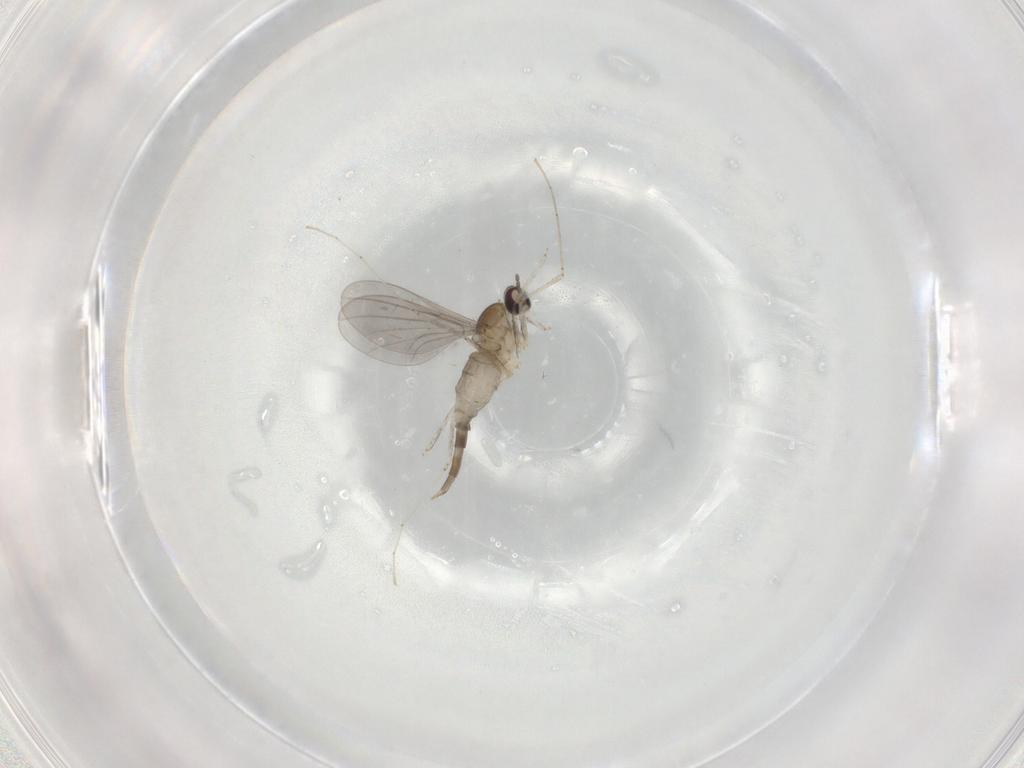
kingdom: Animalia
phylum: Arthropoda
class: Insecta
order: Diptera
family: Cecidomyiidae
